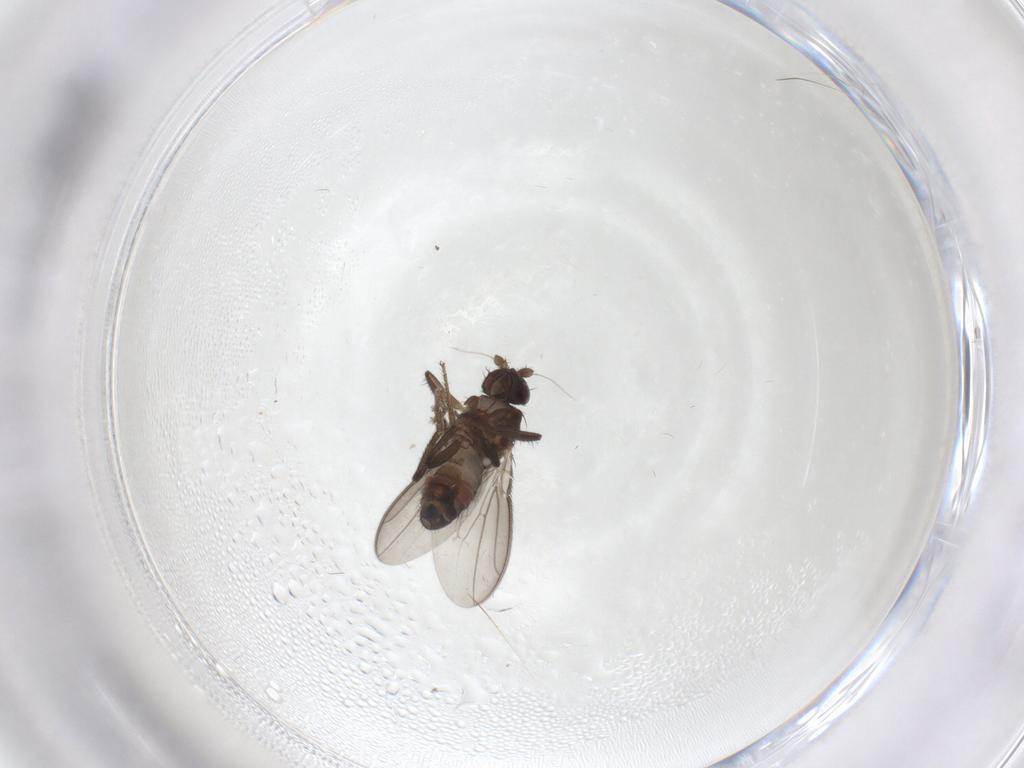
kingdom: Animalia
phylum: Arthropoda
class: Insecta
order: Diptera
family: Sphaeroceridae
